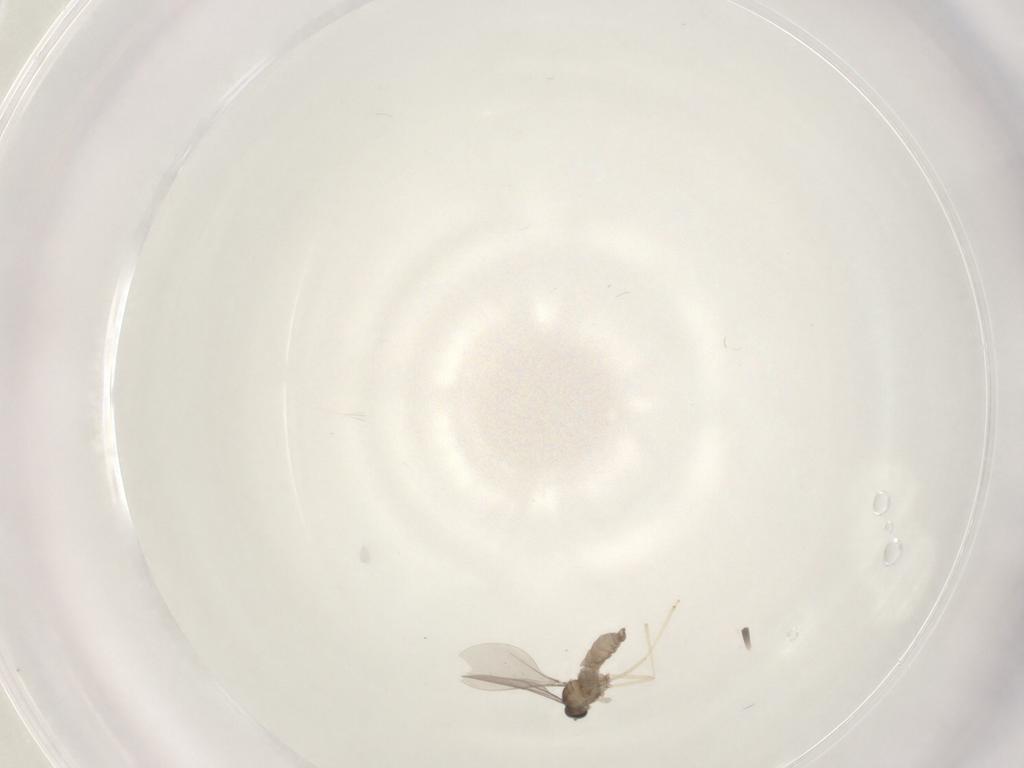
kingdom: Animalia
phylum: Arthropoda
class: Insecta
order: Diptera
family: Cecidomyiidae
